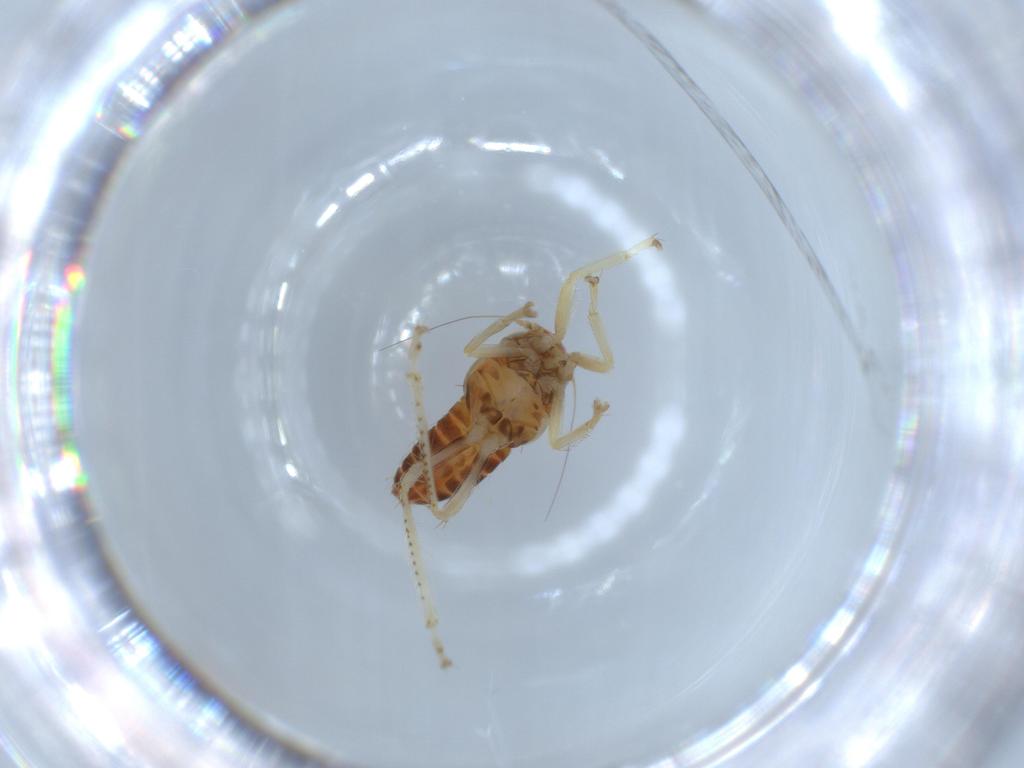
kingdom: Animalia
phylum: Arthropoda
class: Insecta
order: Hemiptera
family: Cicadellidae
